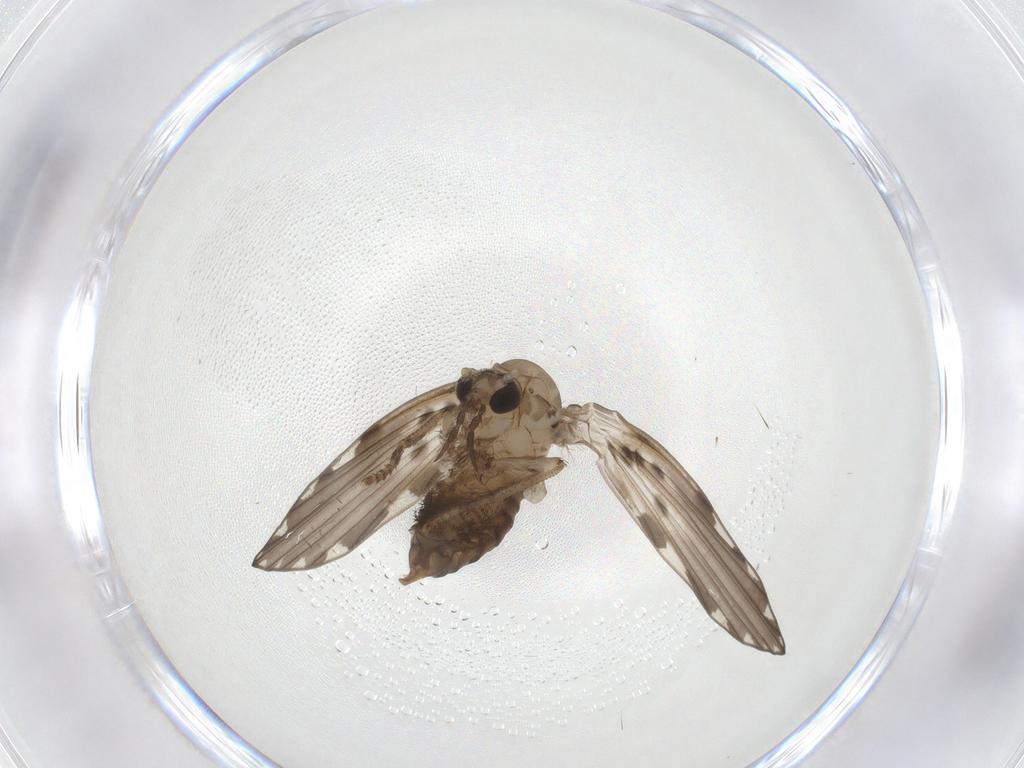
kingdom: Animalia
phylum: Arthropoda
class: Insecta
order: Diptera
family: Psychodidae
